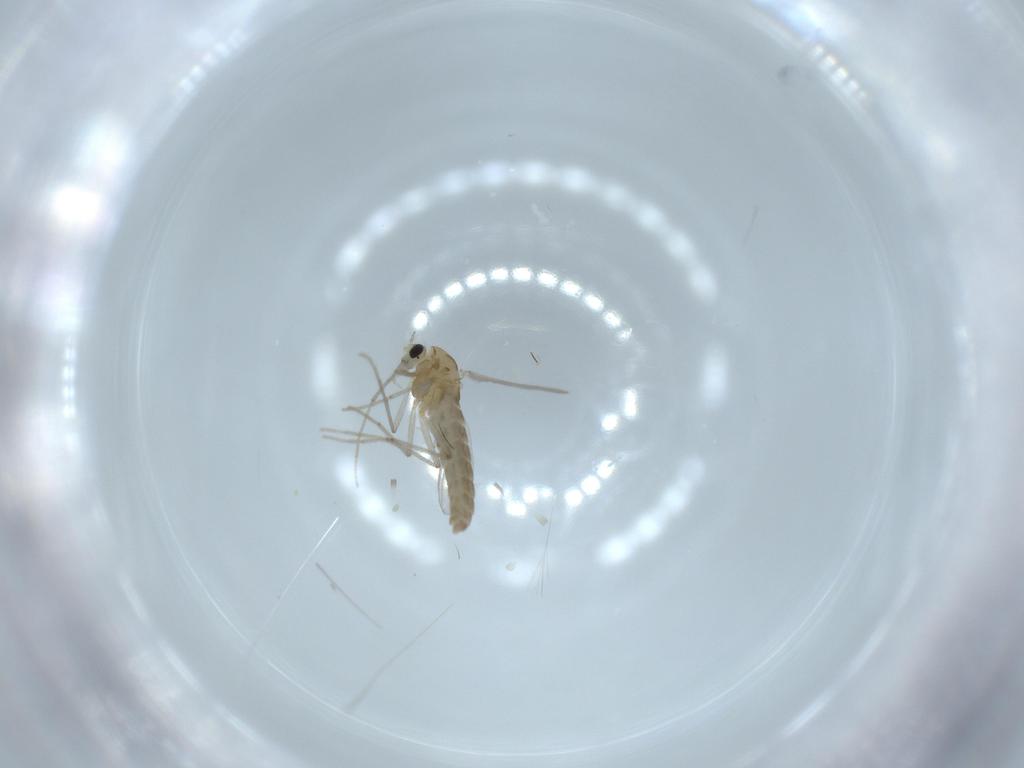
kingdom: Animalia
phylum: Arthropoda
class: Insecta
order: Diptera
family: Chironomidae
